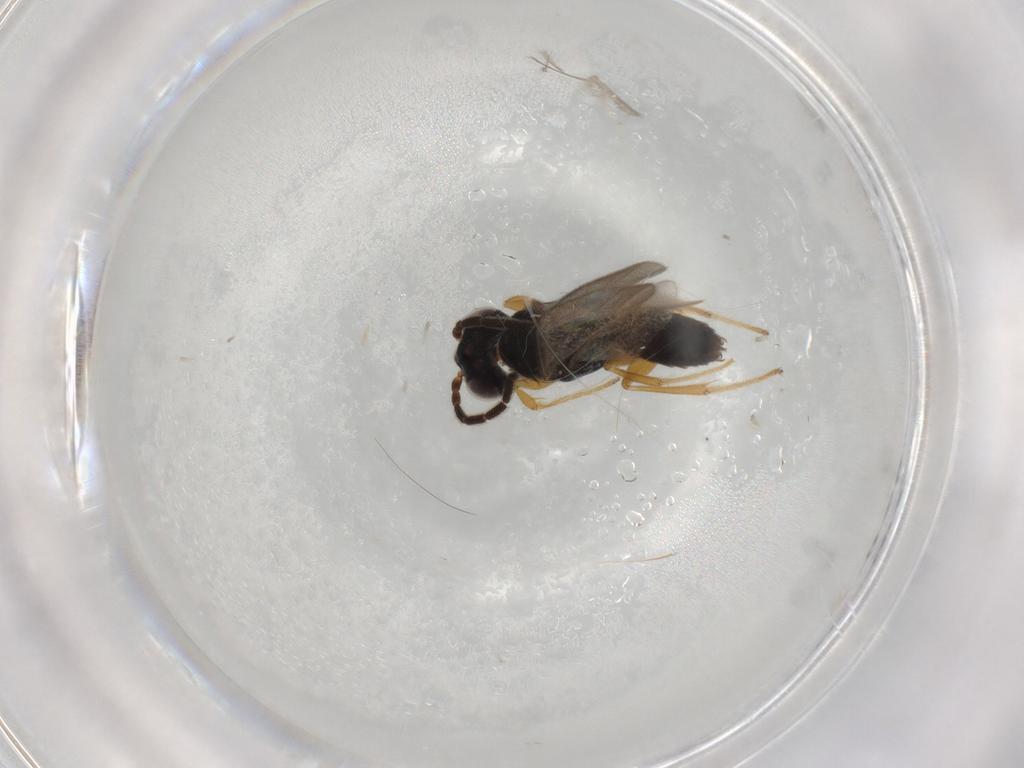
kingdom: Animalia
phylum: Arthropoda
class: Insecta
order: Hymenoptera
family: Dryinidae
